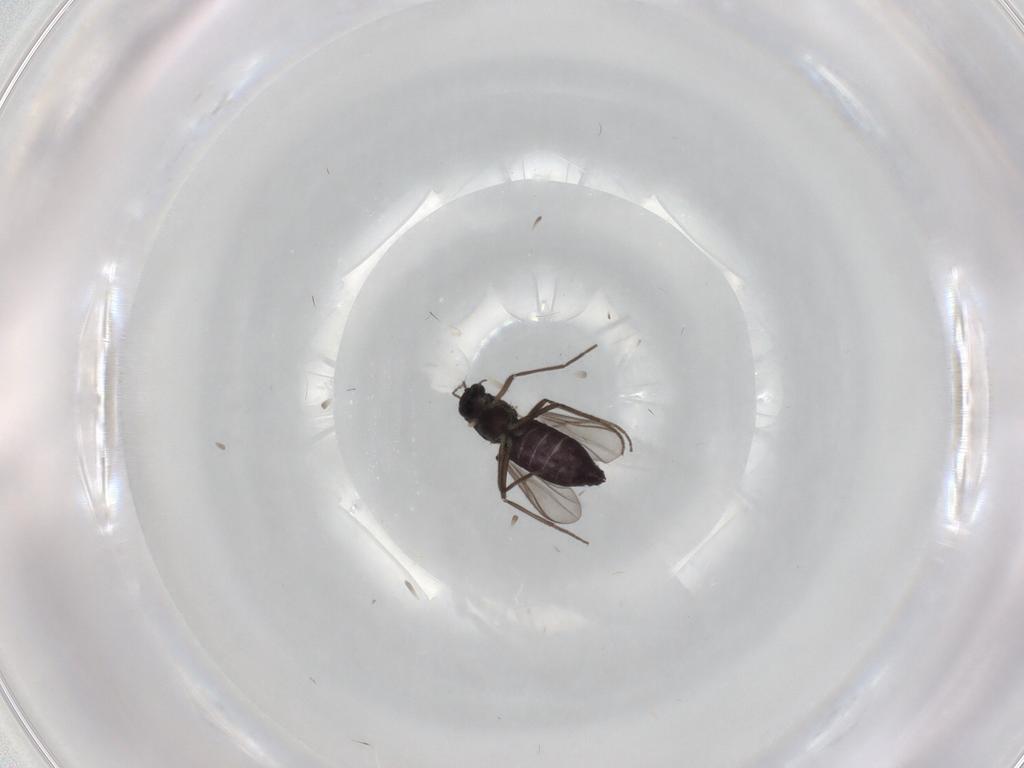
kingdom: Animalia
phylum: Arthropoda
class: Insecta
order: Diptera
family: Chironomidae
